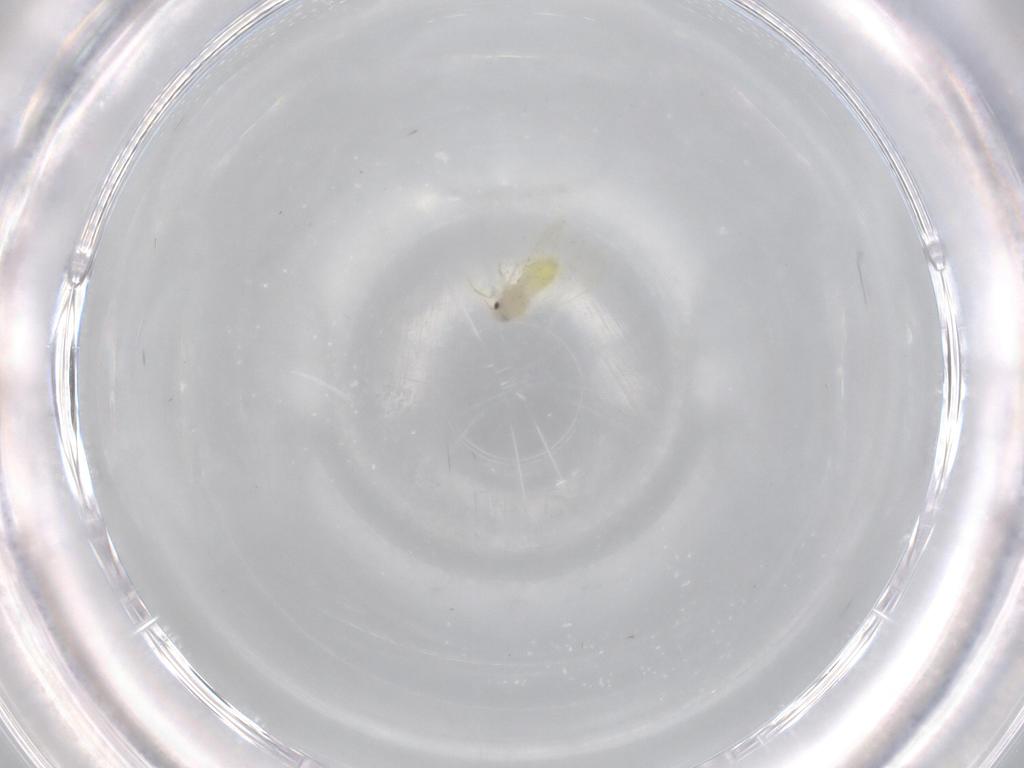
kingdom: Animalia
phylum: Arthropoda
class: Insecta
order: Hemiptera
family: Aleyrodidae
